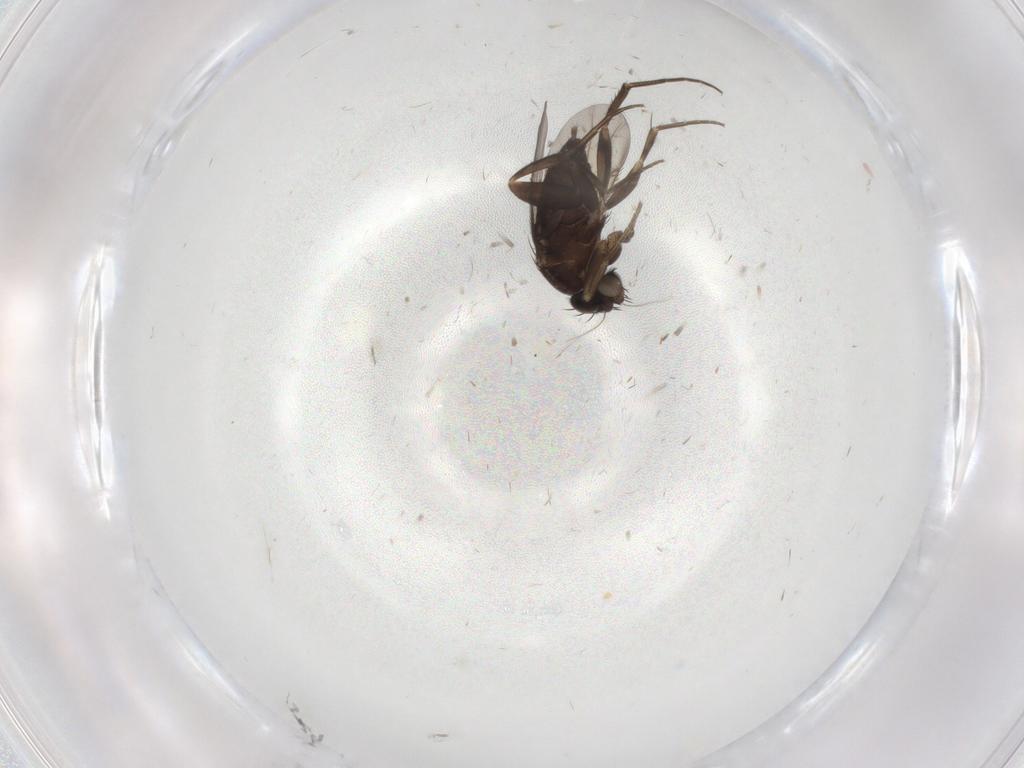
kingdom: Animalia
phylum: Arthropoda
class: Insecta
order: Diptera
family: Phoridae
